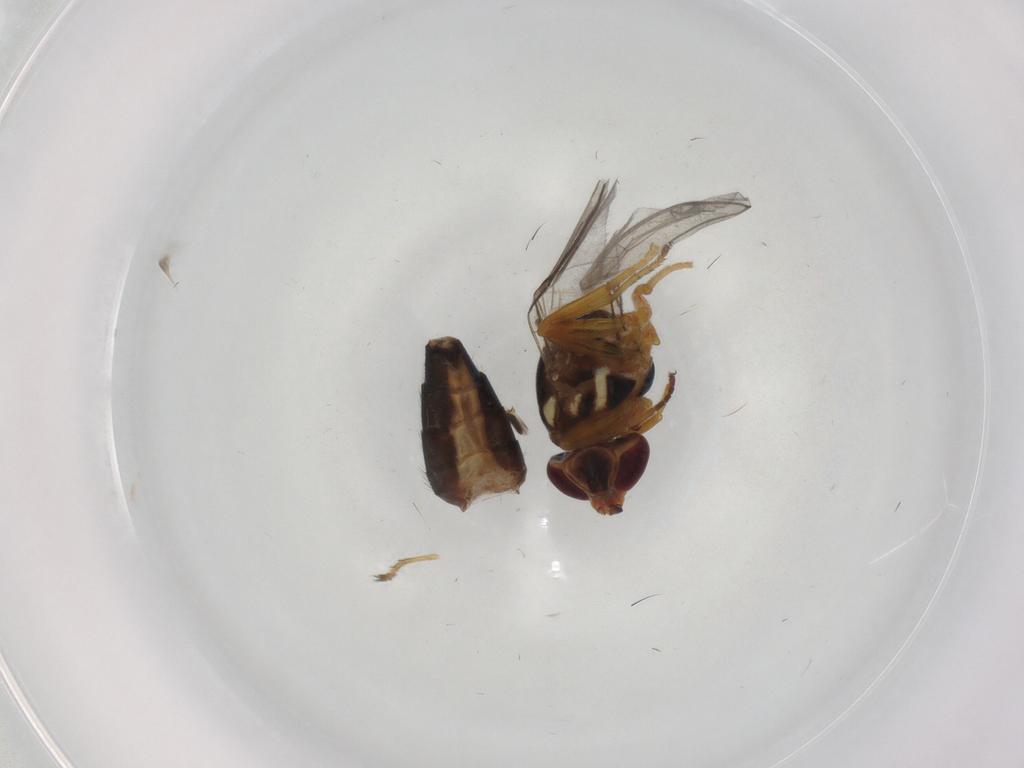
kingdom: Animalia
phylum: Arthropoda
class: Insecta
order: Diptera
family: Chloropidae
